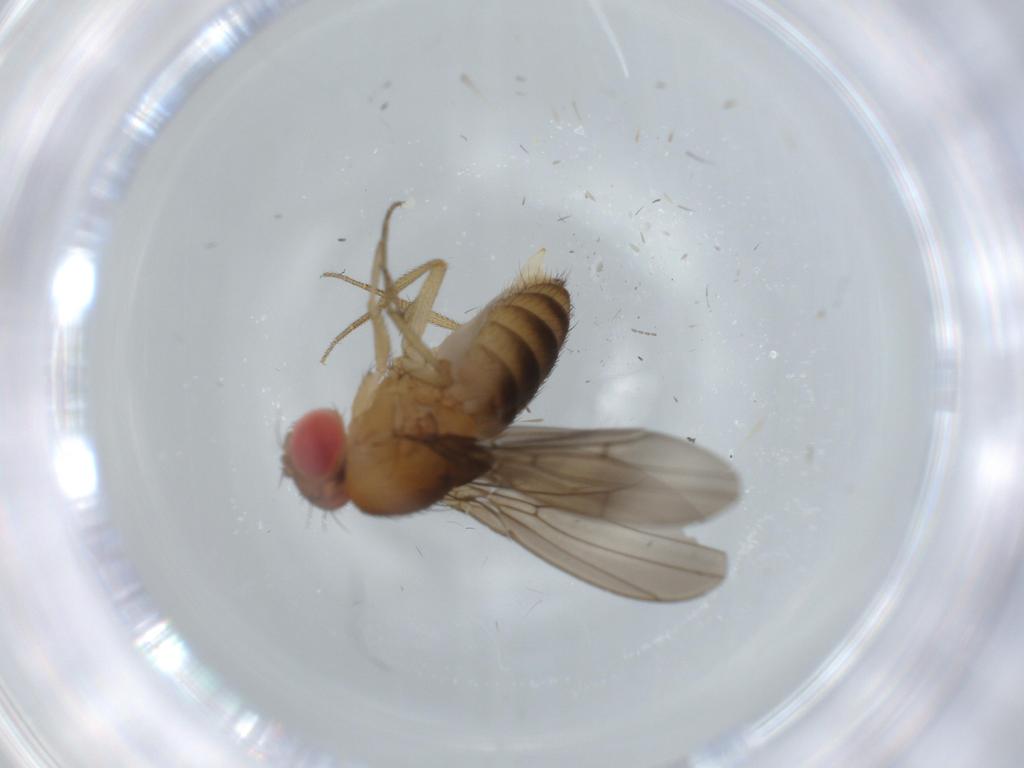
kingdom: Animalia
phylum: Arthropoda
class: Insecta
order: Diptera
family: Drosophilidae
